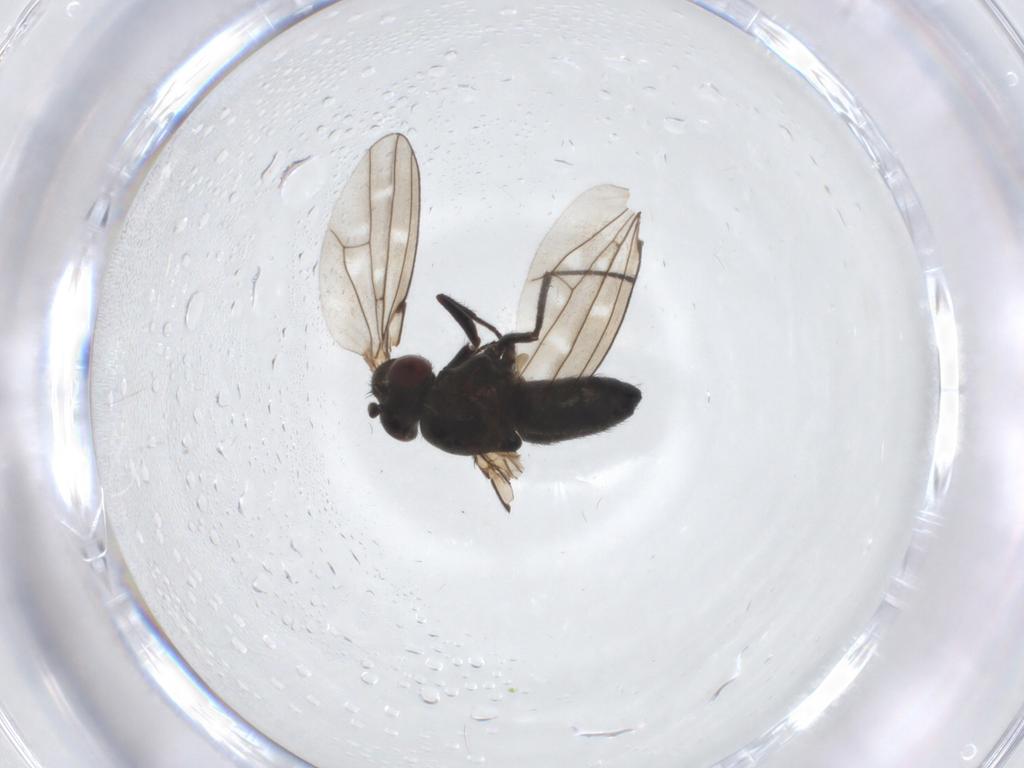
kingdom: Animalia
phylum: Arthropoda
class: Insecta
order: Diptera
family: Ephydridae
